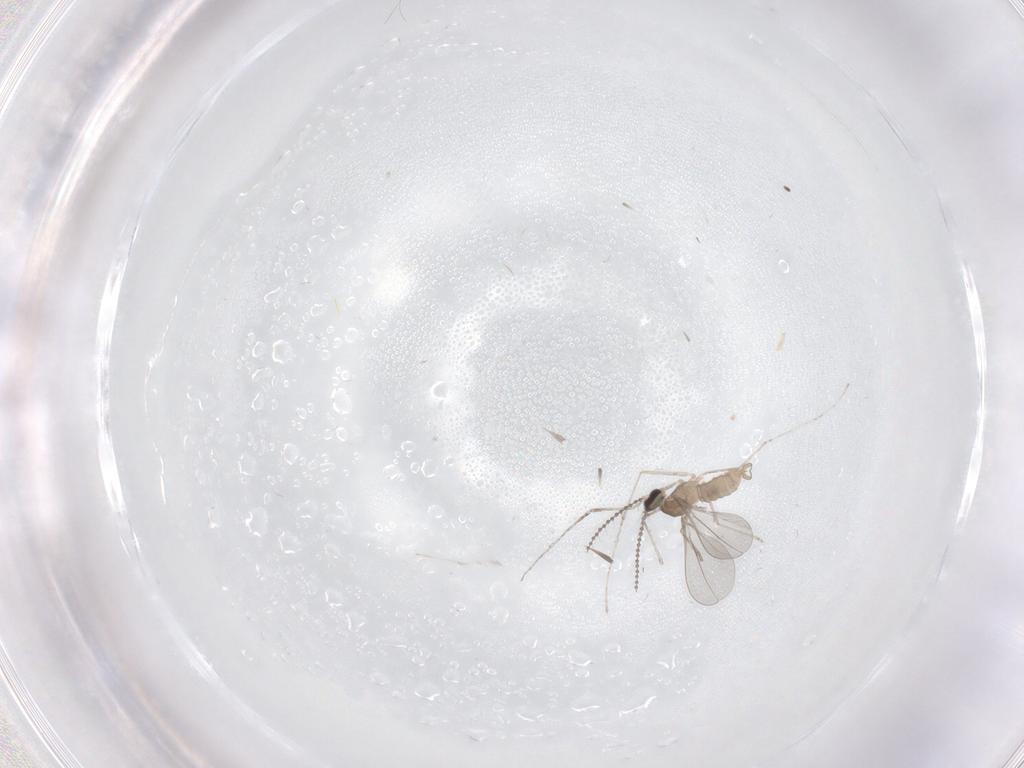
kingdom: Animalia
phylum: Arthropoda
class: Insecta
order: Diptera
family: Cecidomyiidae
